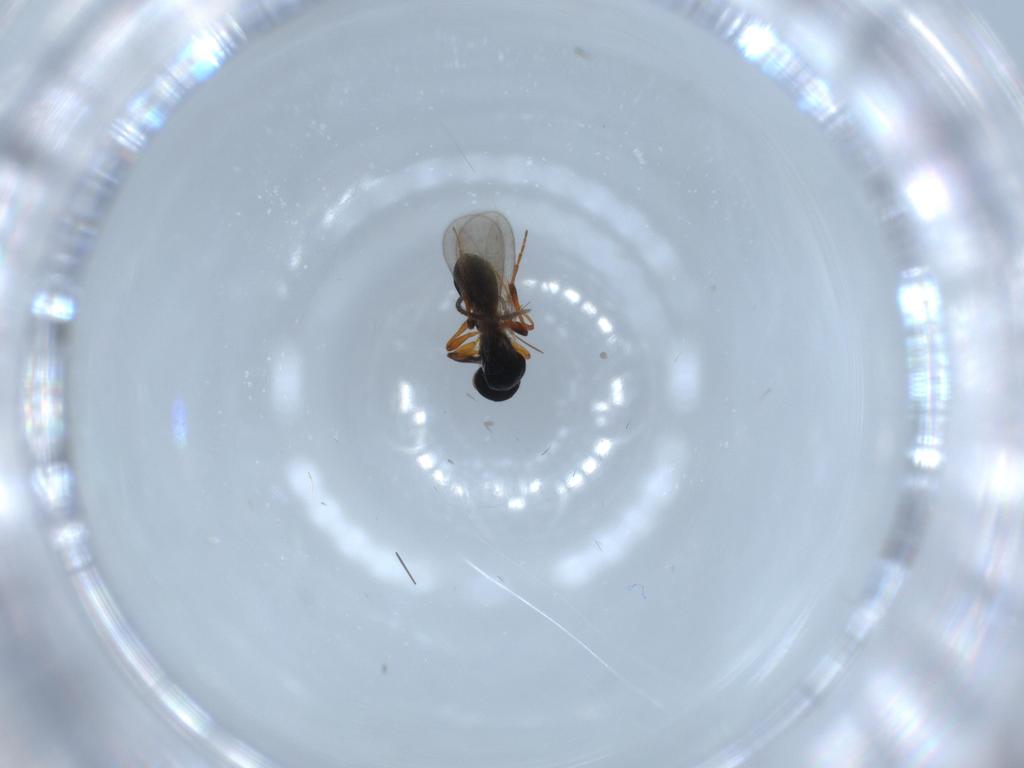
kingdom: Animalia
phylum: Arthropoda
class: Insecta
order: Hymenoptera
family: Platygastridae
